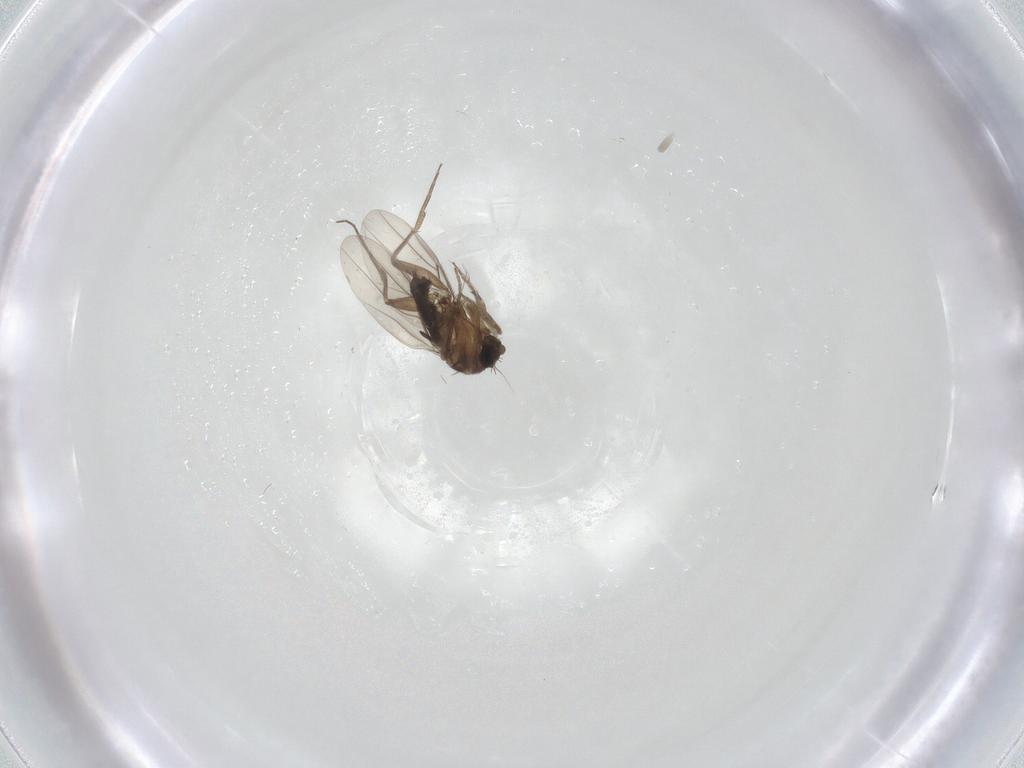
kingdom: Animalia
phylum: Arthropoda
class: Insecta
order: Diptera
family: Phoridae
